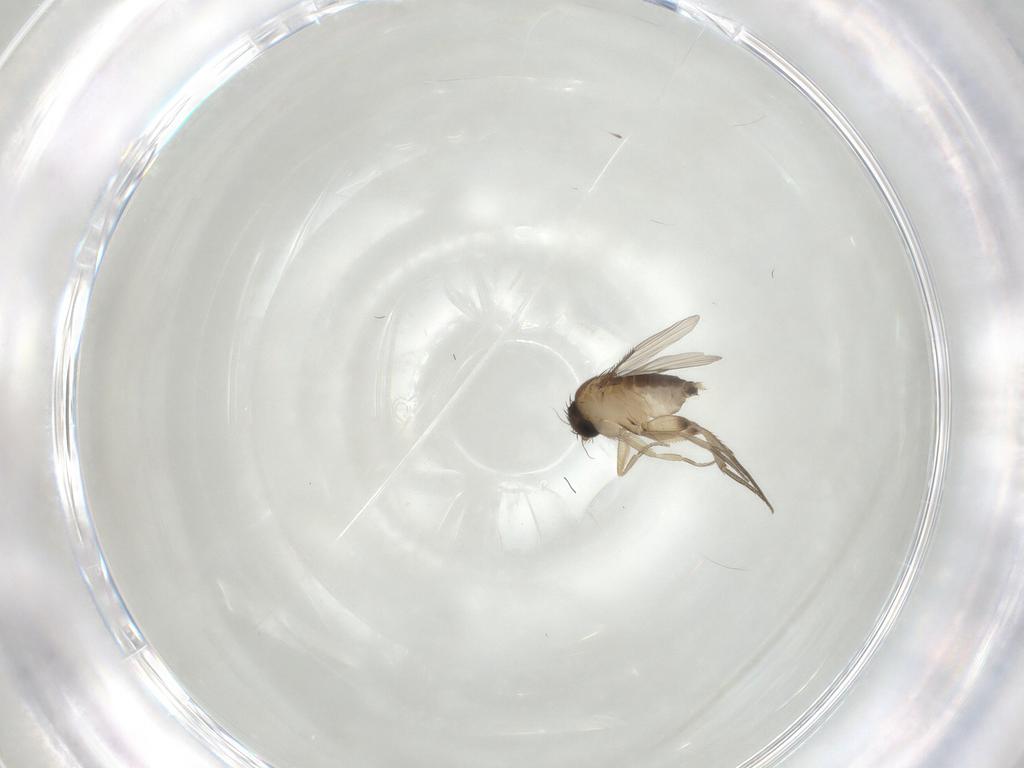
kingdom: Animalia
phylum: Arthropoda
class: Insecta
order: Diptera
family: Phoridae
